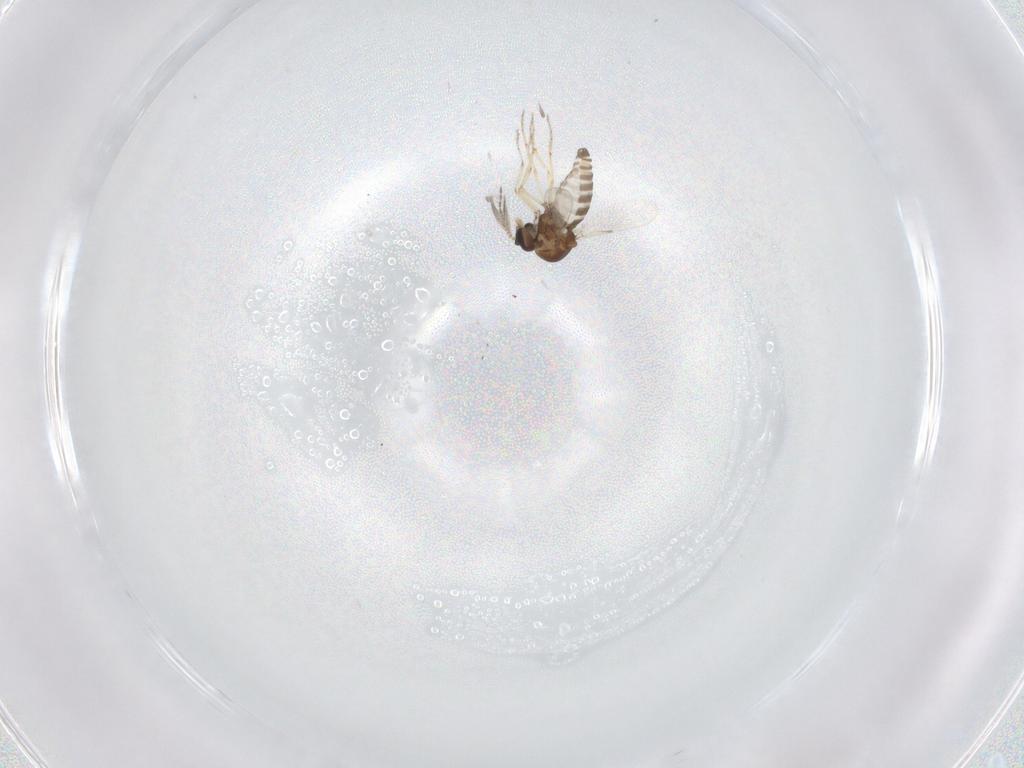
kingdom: Animalia
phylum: Arthropoda
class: Insecta
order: Diptera
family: Ceratopogonidae
